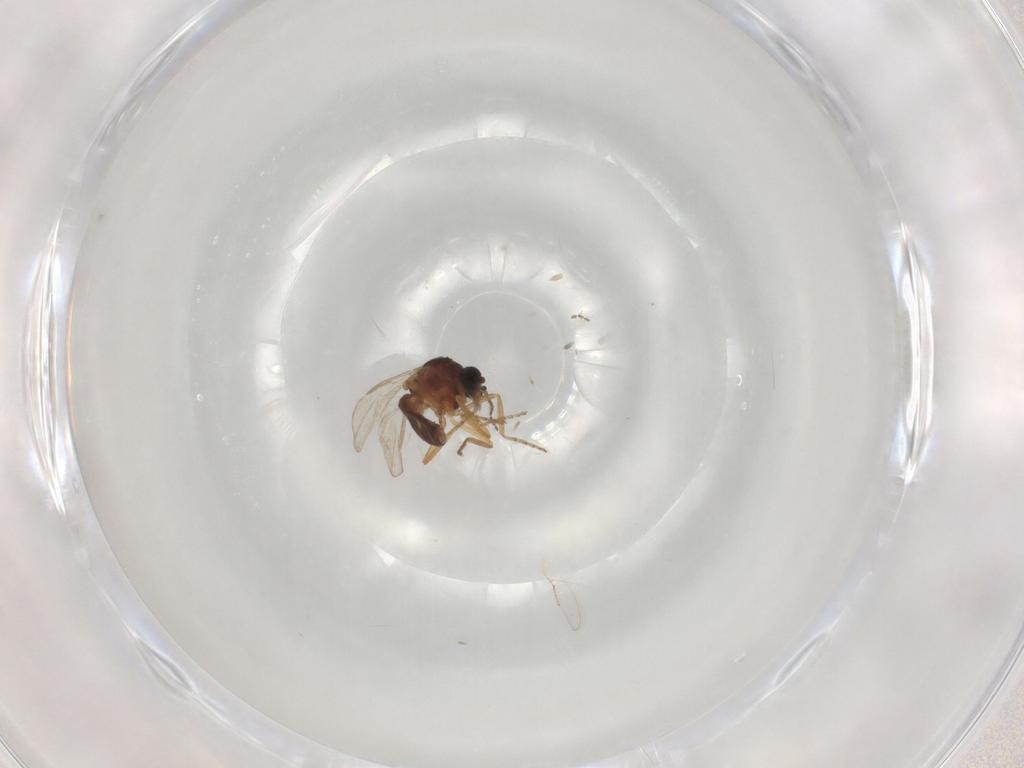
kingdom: Animalia
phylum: Arthropoda
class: Insecta
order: Diptera
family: Ceratopogonidae
